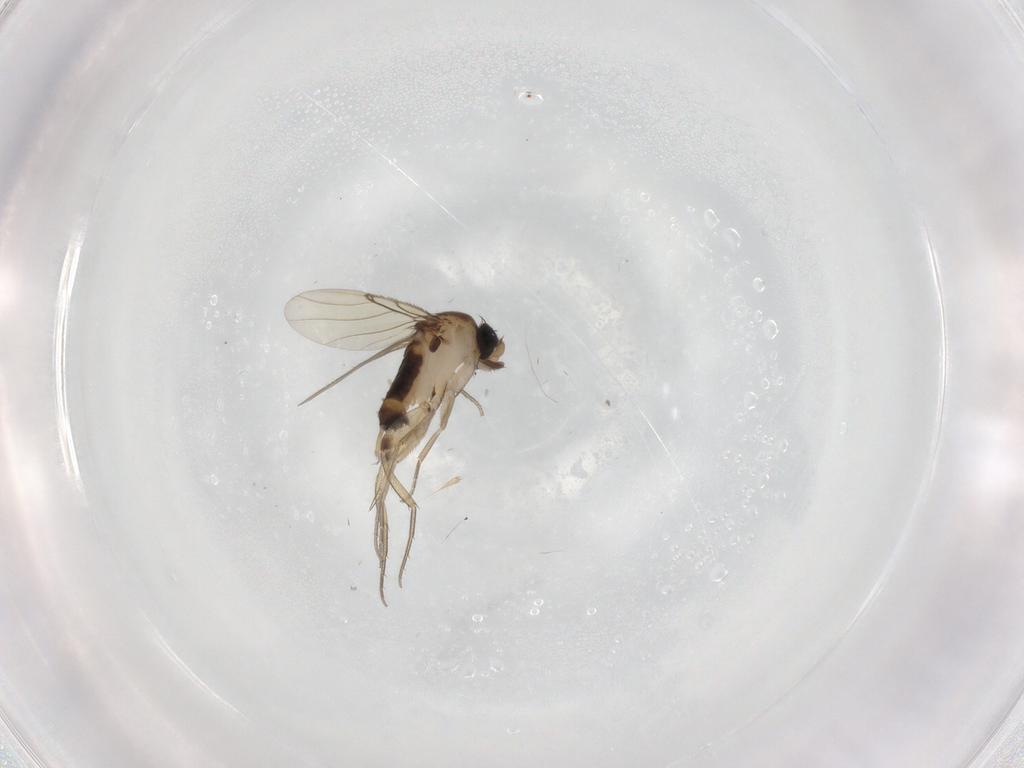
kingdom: Animalia
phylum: Arthropoda
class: Insecta
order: Diptera
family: Phoridae
